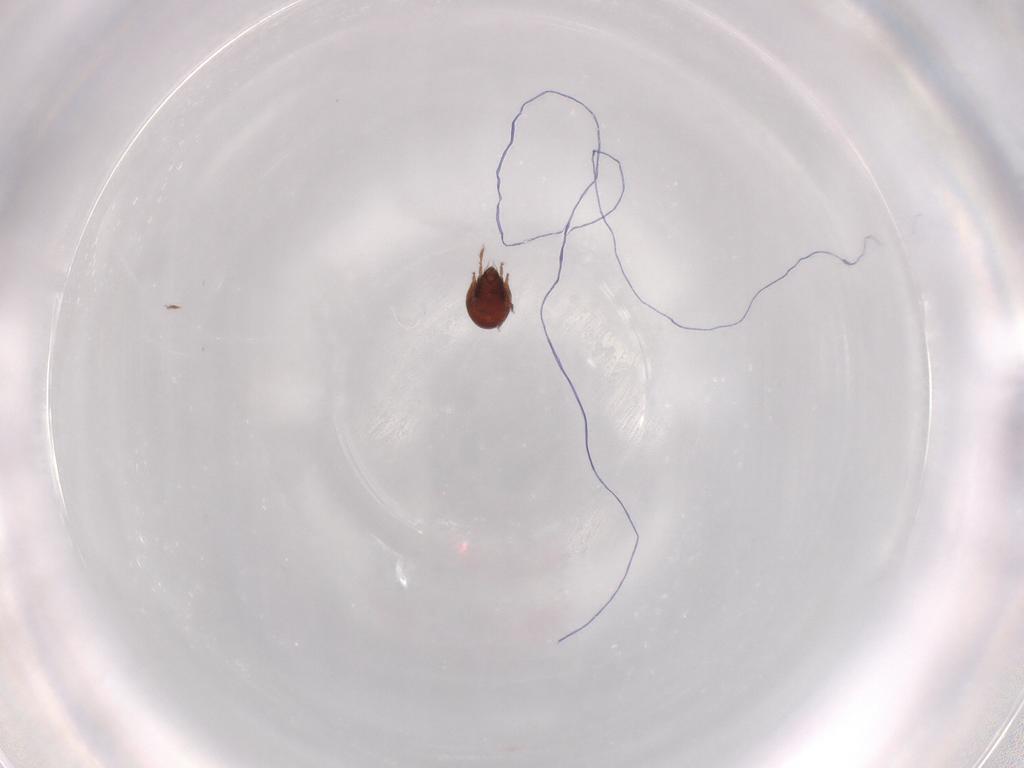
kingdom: Animalia
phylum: Arthropoda
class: Arachnida
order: Sarcoptiformes
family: Ceratozetidae
